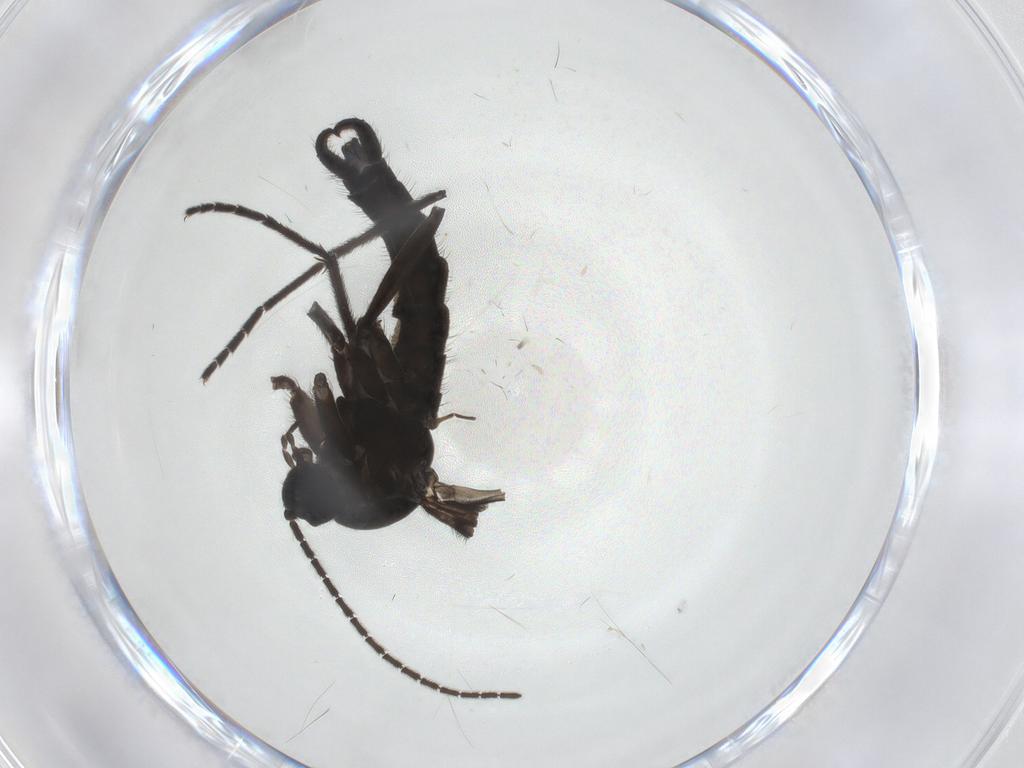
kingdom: Animalia
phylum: Arthropoda
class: Insecta
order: Diptera
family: Sciaridae
